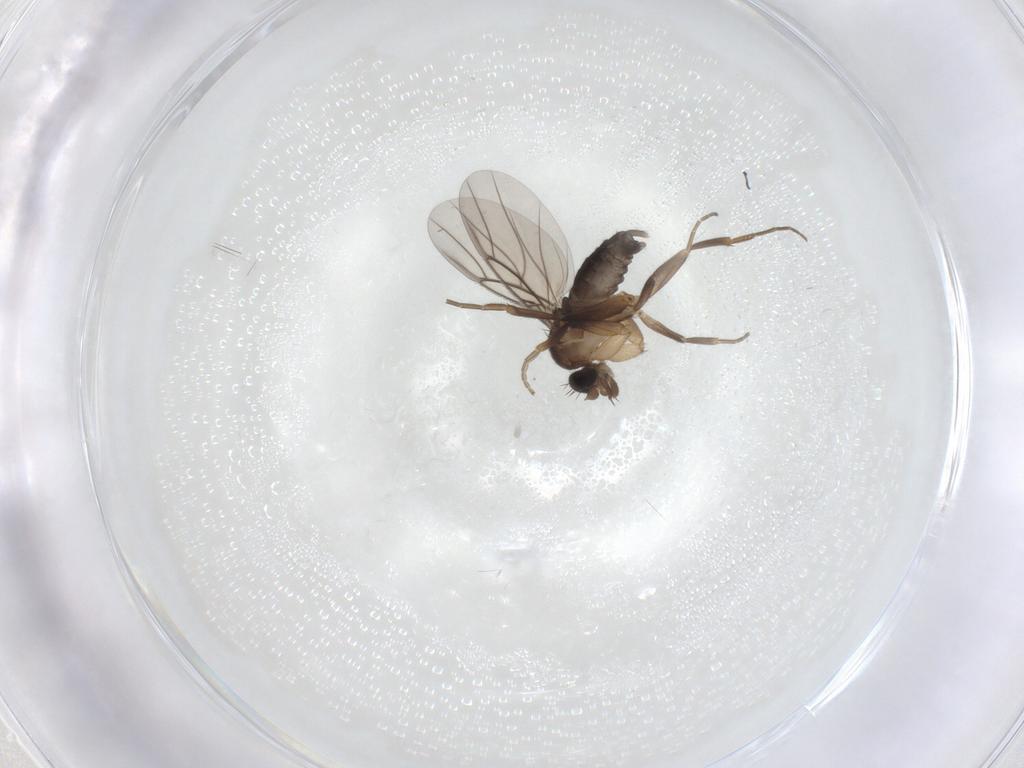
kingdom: Animalia
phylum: Arthropoda
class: Insecta
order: Diptera
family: Phoridae
